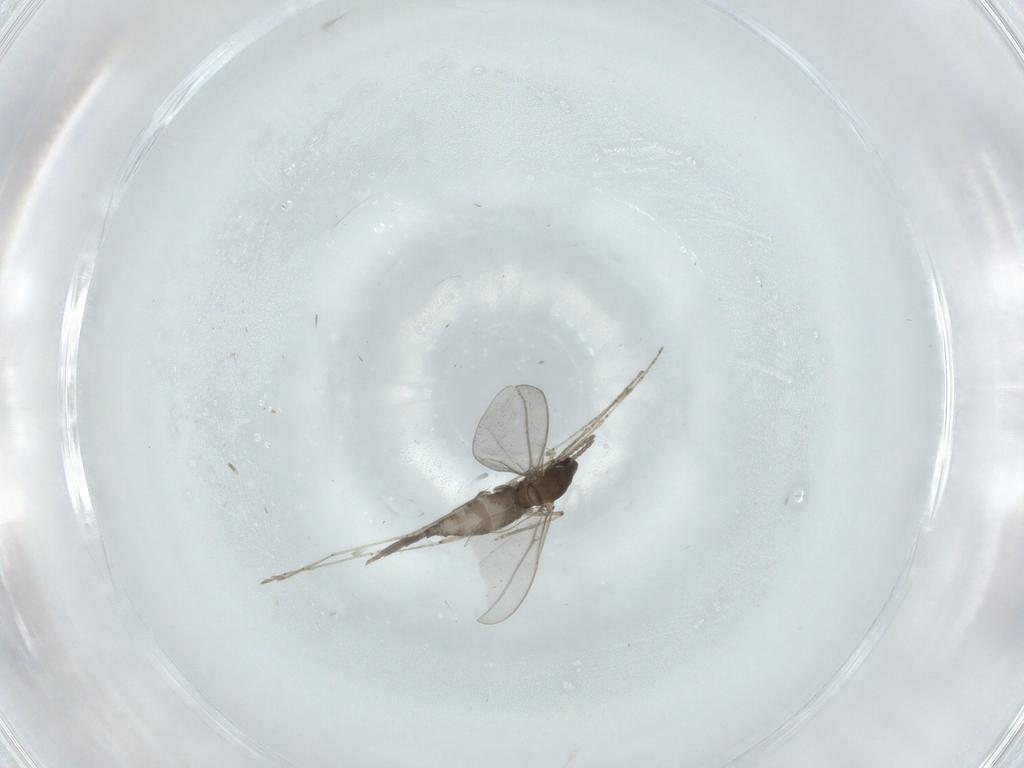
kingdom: Animalia
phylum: Arthropoda
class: Insecta
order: Diptera
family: Cecidomyiidae
